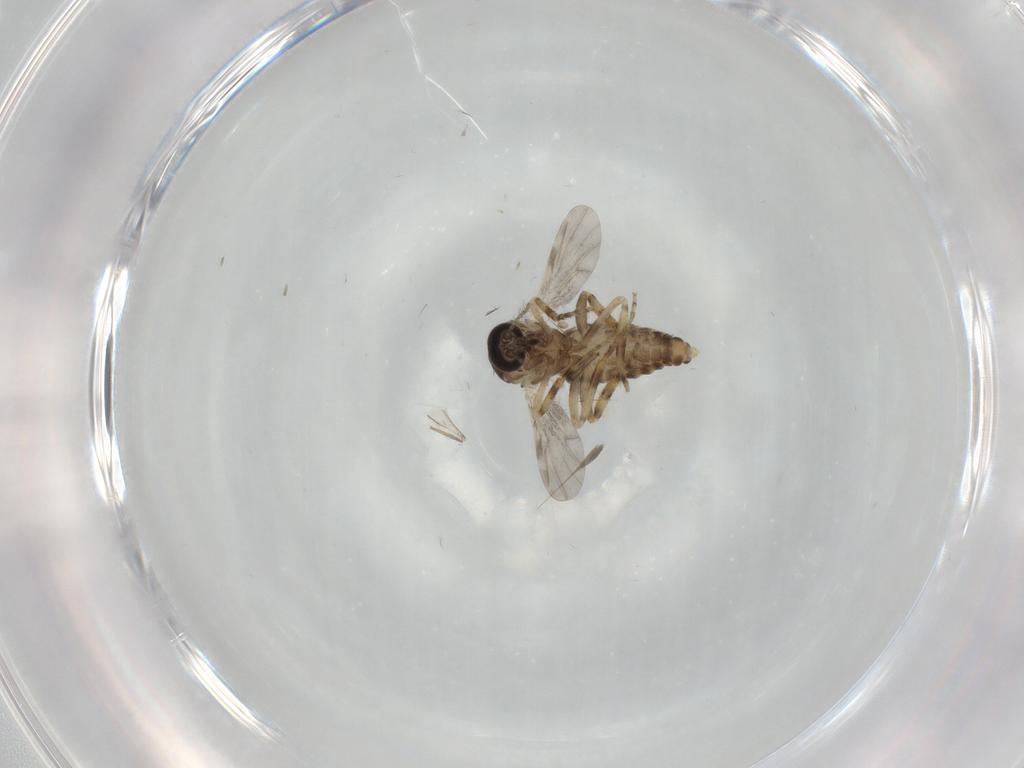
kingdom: Animalia
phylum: Arthropoda
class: Insecta
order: Diptera
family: Ceratopogonidae
